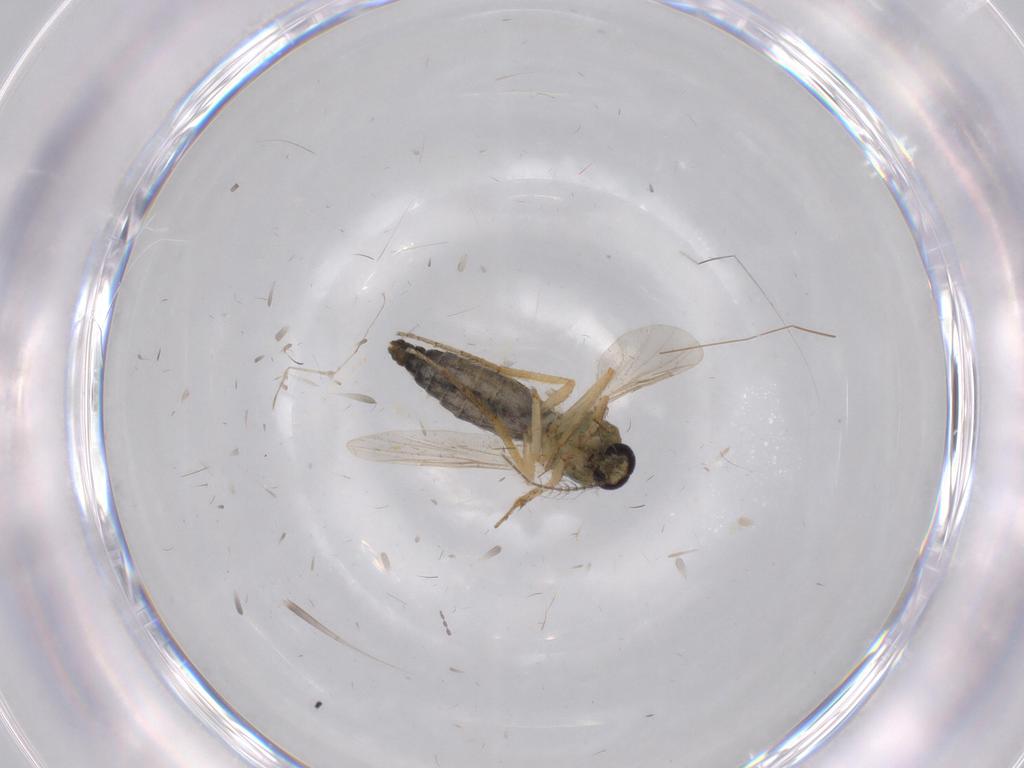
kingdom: Animalia
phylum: Arthropoda
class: Insecta
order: Diptera
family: Ceratopogonidae
